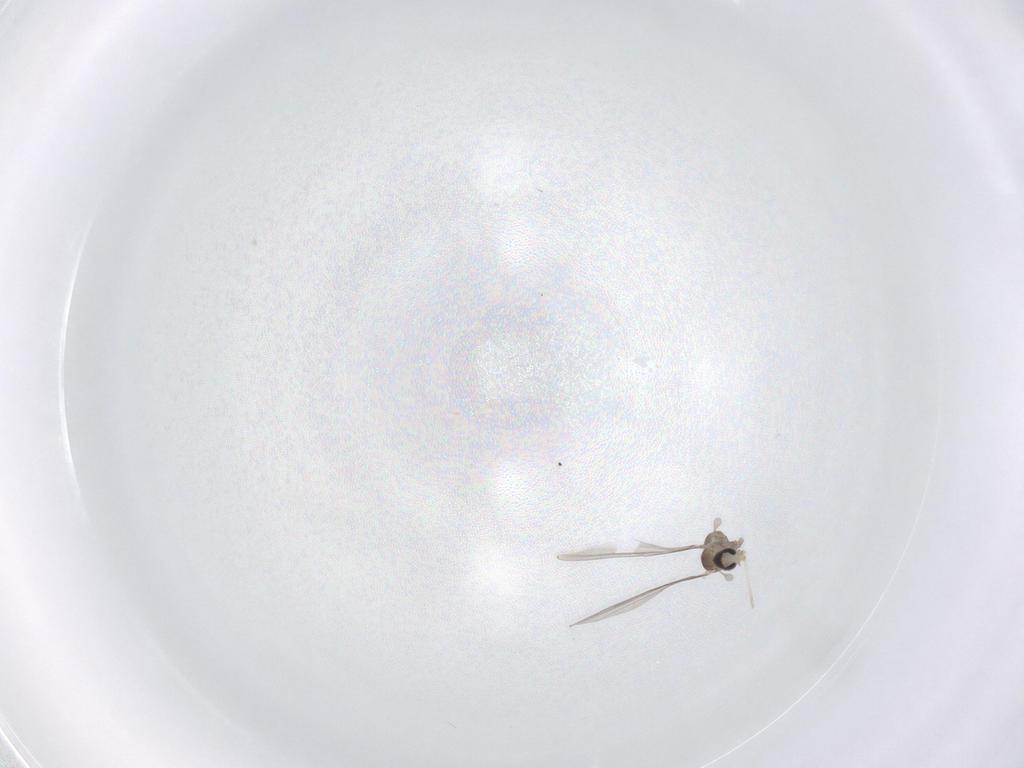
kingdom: Animalia
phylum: Arthropoda
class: Insecta
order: Diptera
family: Cecidomyiidae
